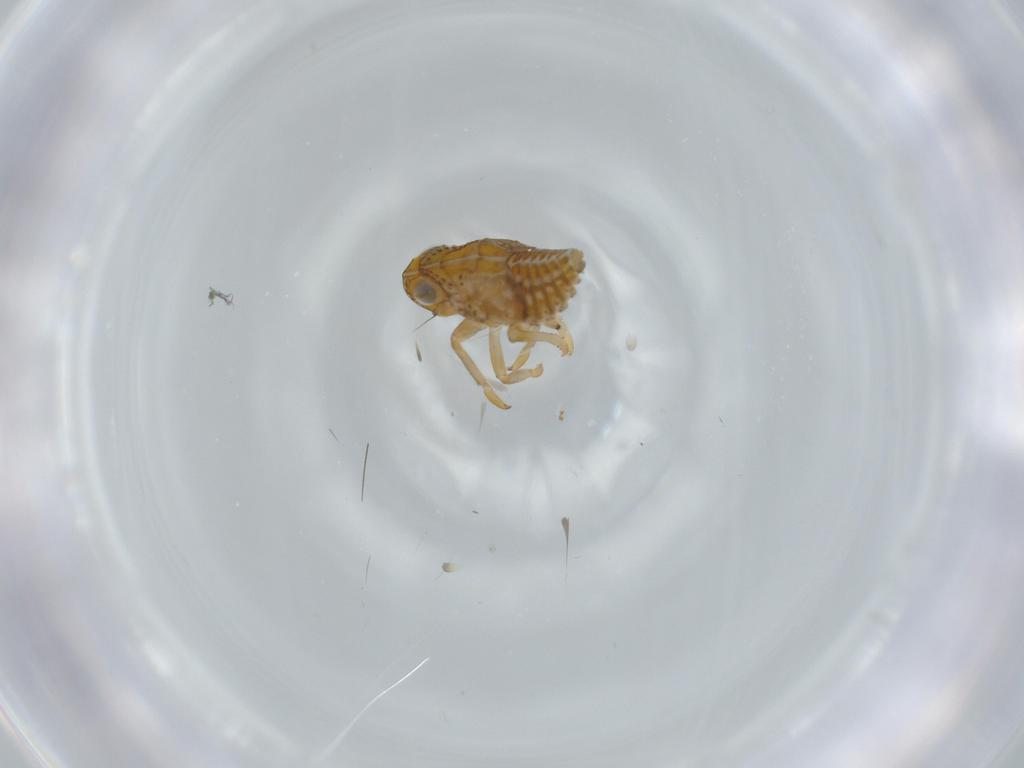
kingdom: Animalia
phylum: Arthropoda
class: Insecta
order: Hemiptera
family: Issidae
